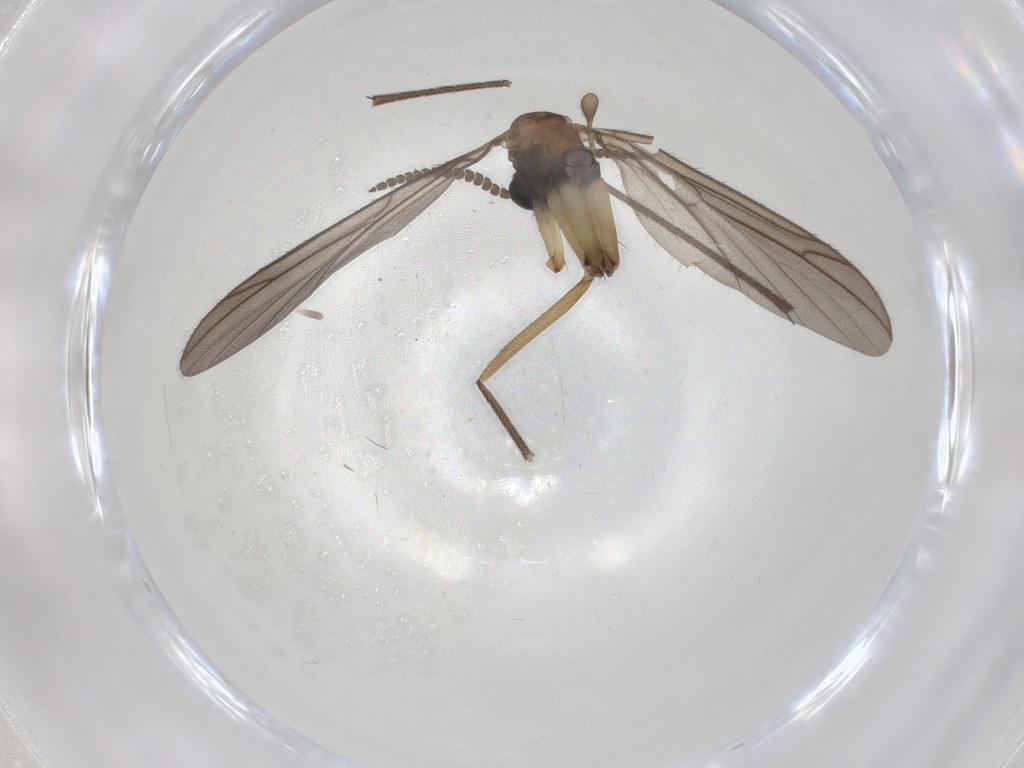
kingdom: Animalia
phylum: Arthropoda
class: Insecta
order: Diptera
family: Ditomyiidae
